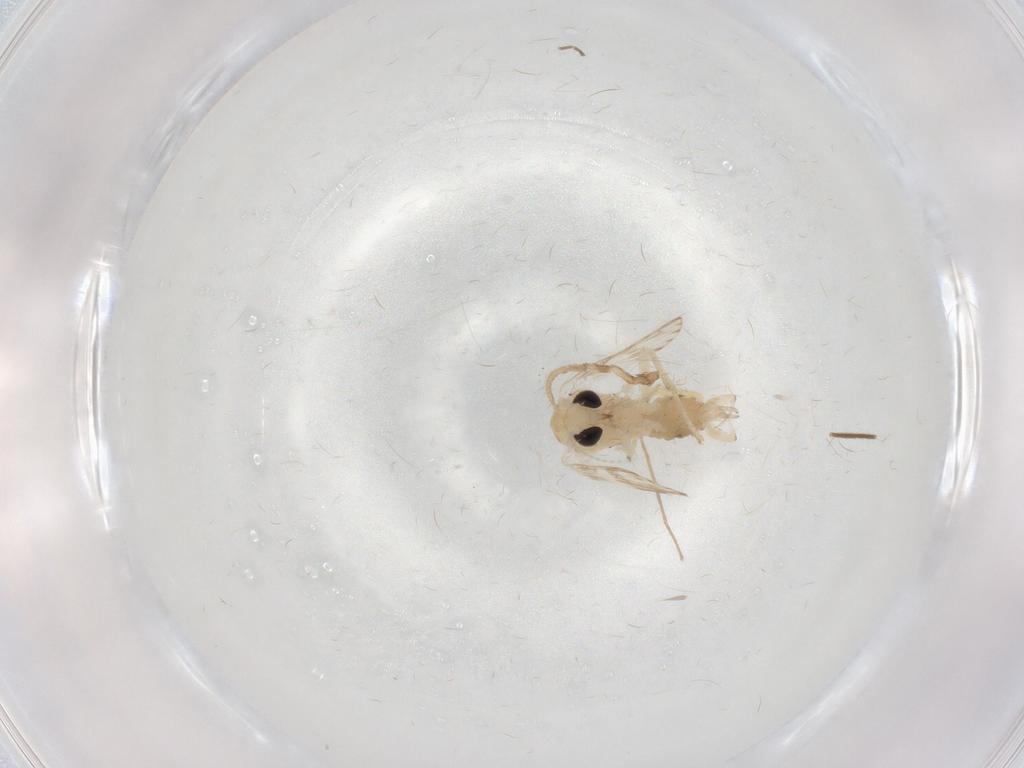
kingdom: Animalia
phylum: Arthropoda
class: Insecta
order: Diptera
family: Psychodidae
